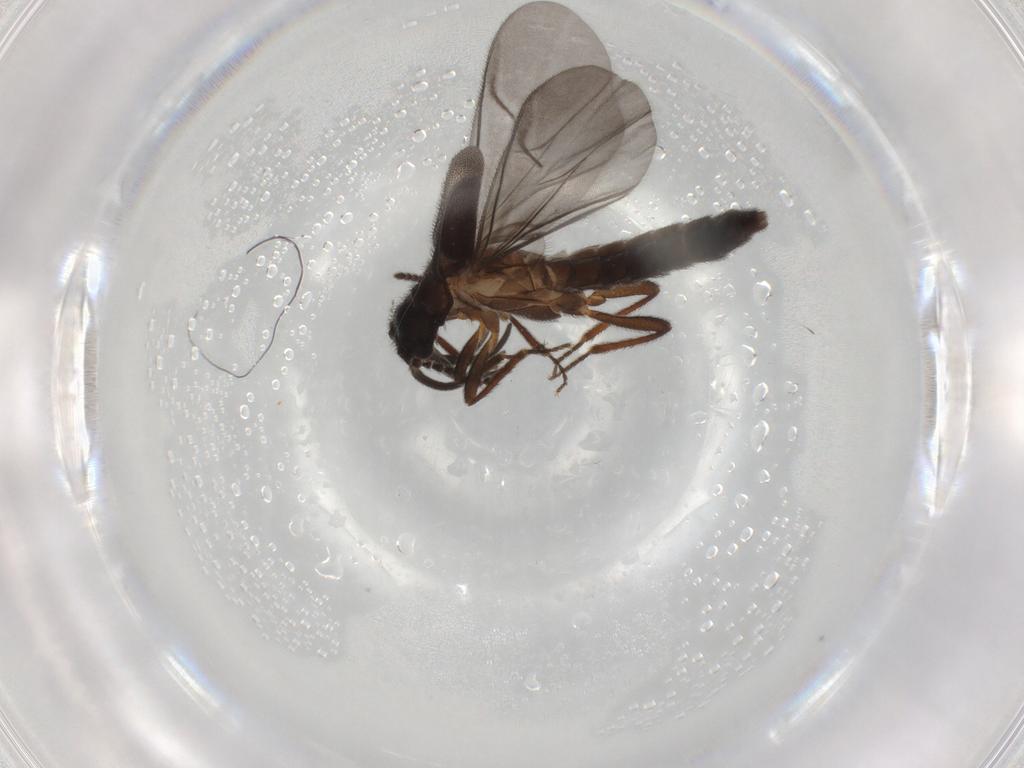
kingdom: Animalia
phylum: Arthropoda
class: Insecta
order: Coleoptera
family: Omethidae
